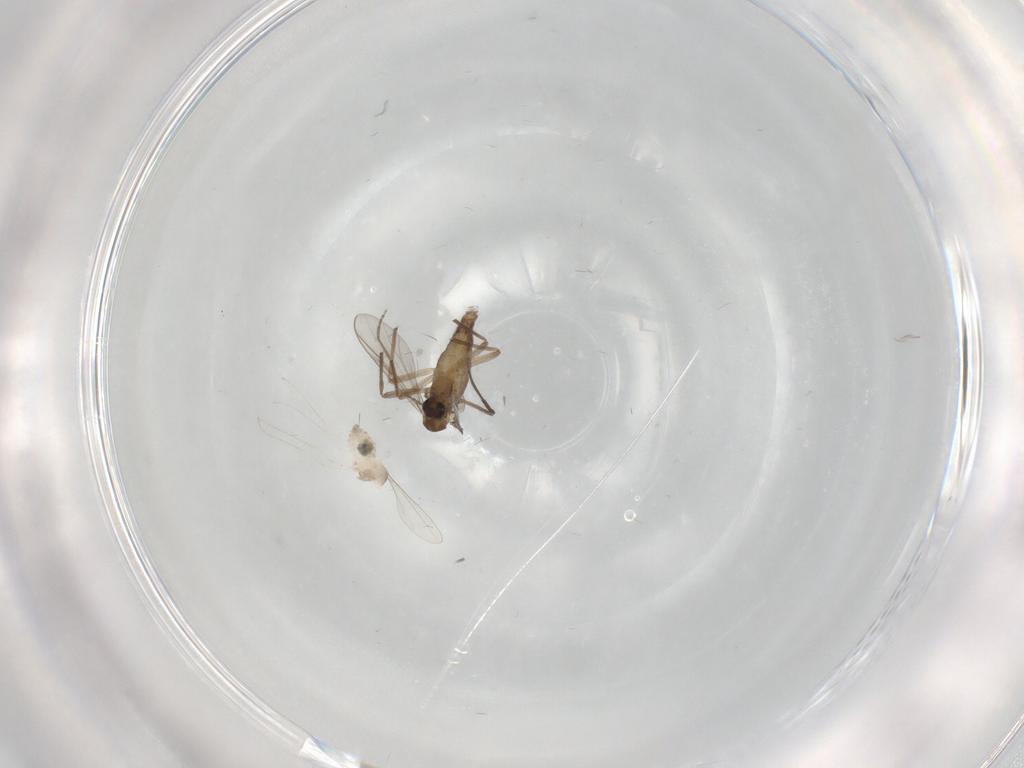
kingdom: Animalia
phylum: Arthropoda
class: Insecta
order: Diptera
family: Cecidomyiidae
